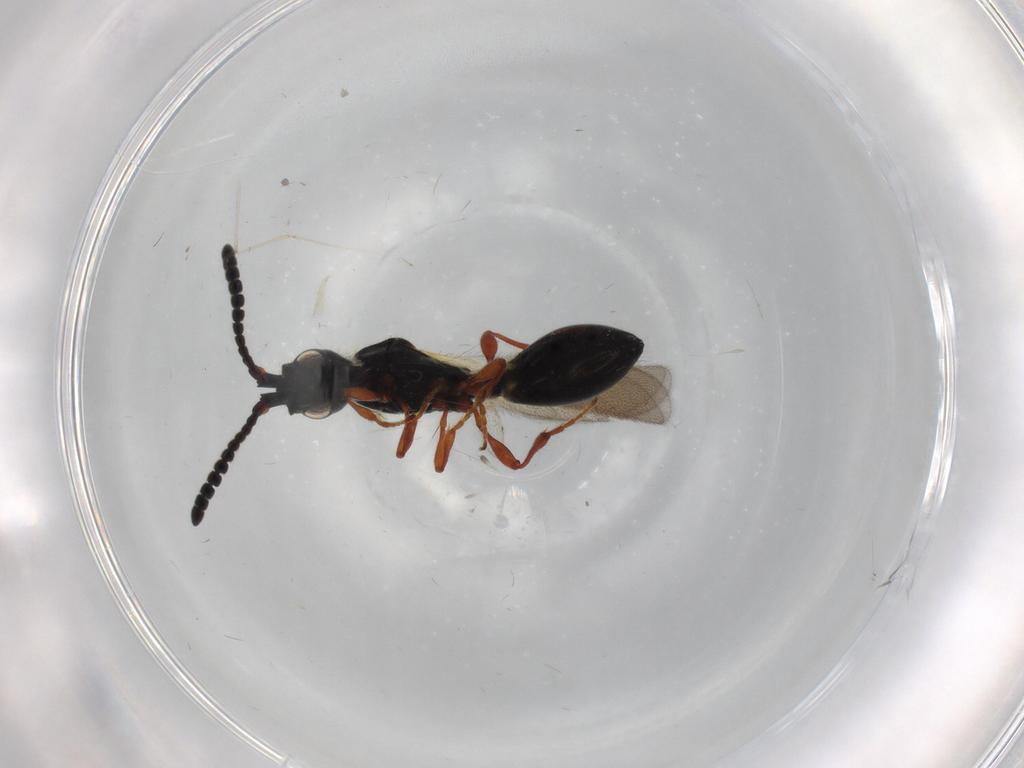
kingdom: Animalia
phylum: Arthropoda
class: Insecta
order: Hymenoptera
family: Diapriidae
